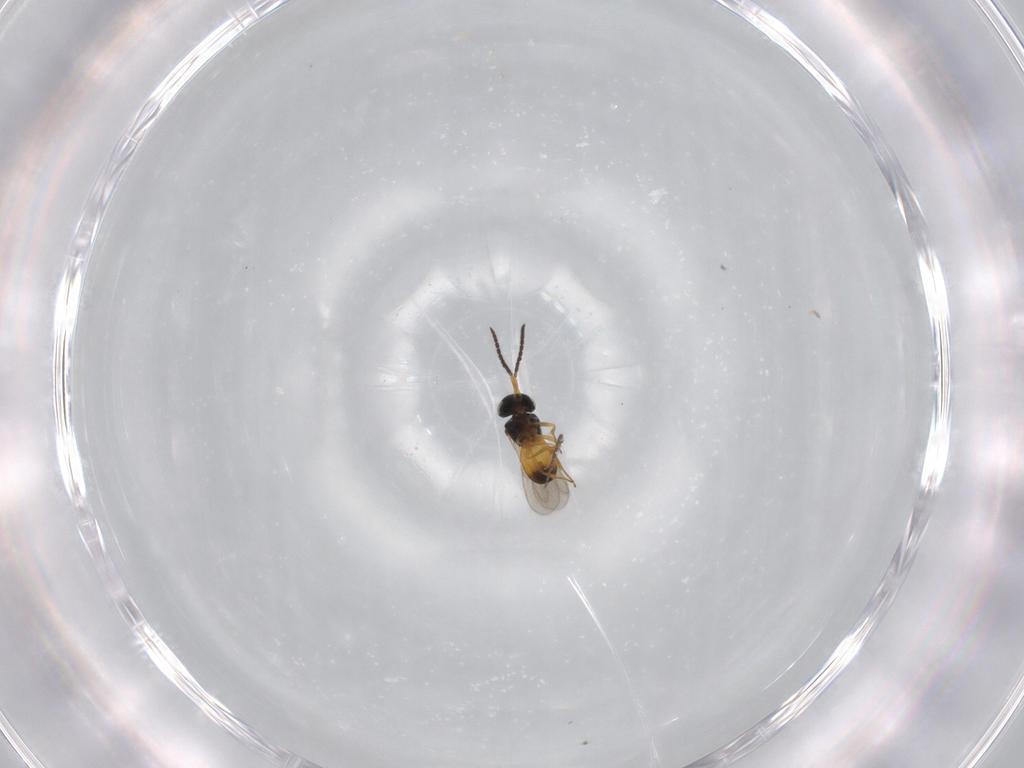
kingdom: Animalia
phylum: Arthropoda
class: Insecta
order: Hymenoptera
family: Scelionidae
